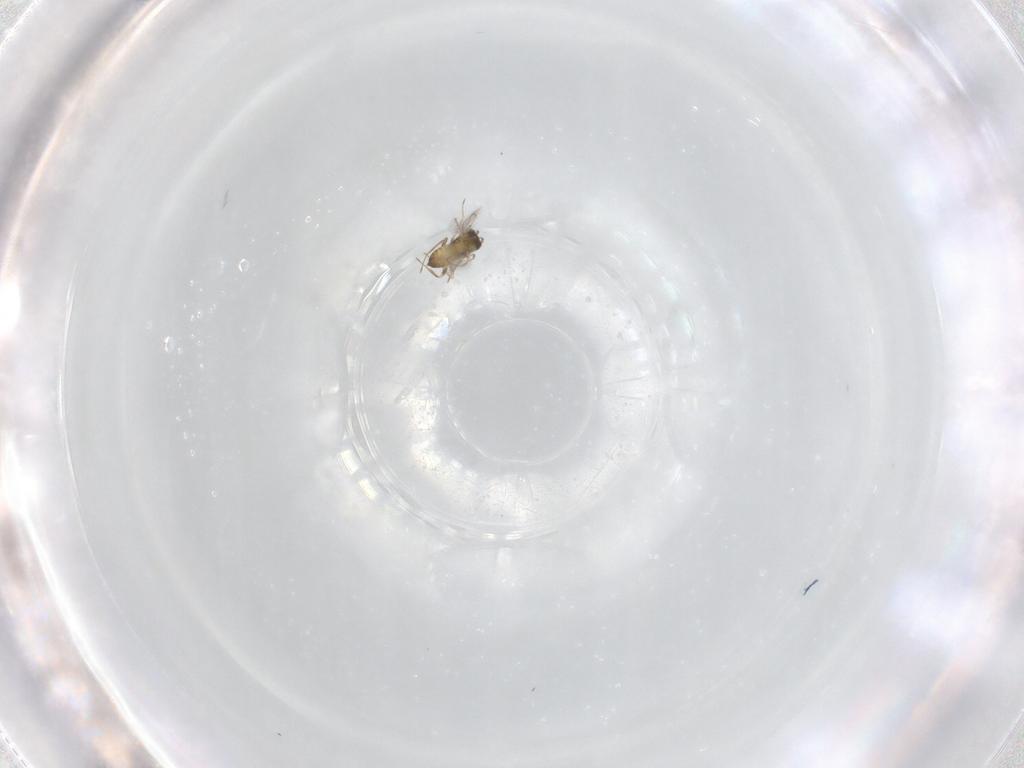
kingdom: Animalia
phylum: Arthropoda
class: Insecta
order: Hymenoptera
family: Trichogrammatidae
